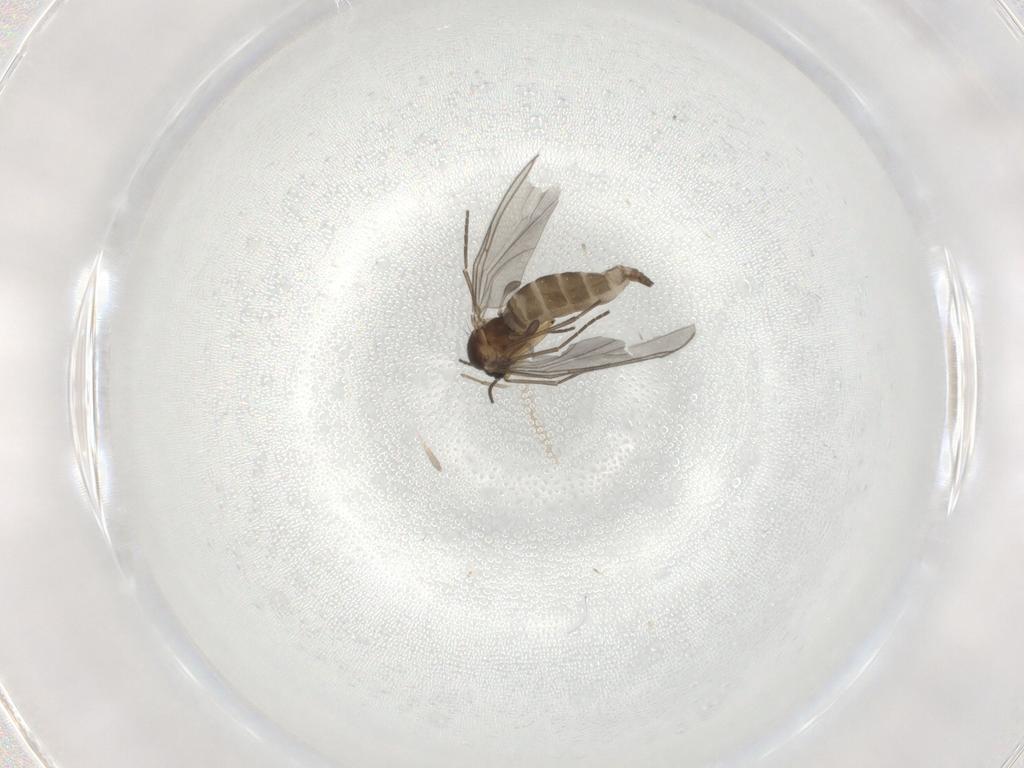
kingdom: Animalia
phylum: Arthropoda
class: Insecta
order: Diptera
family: Sciaridae
